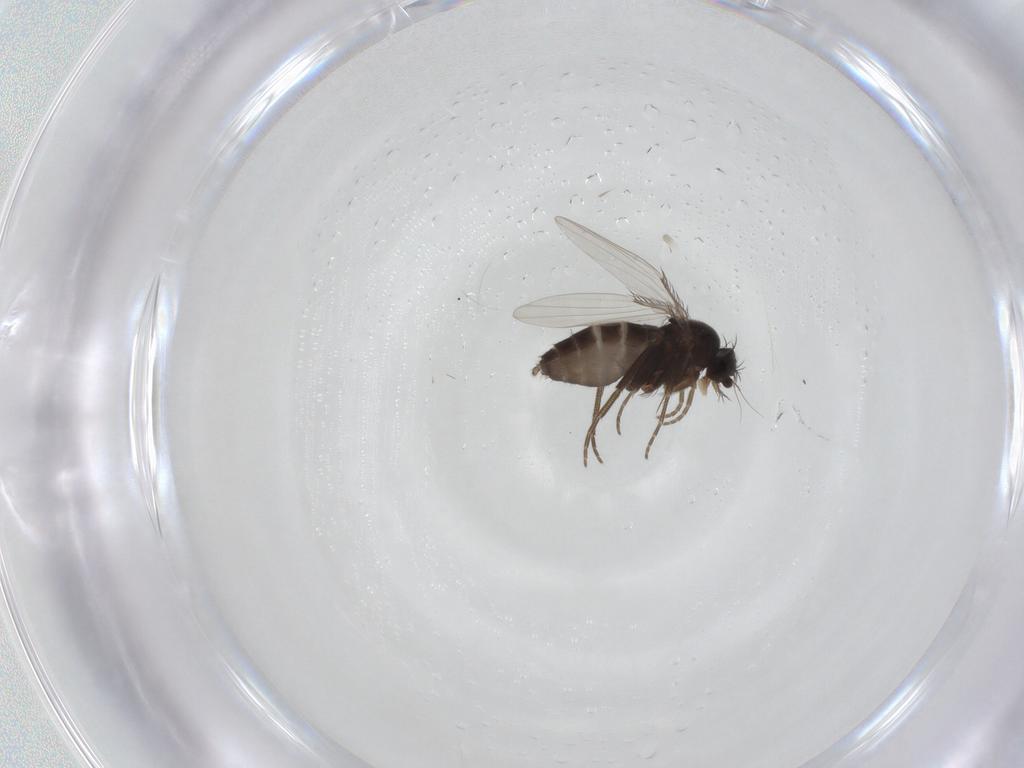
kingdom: Animalia
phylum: Arthropoda
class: Insecta
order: Diptera
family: Phoridae
